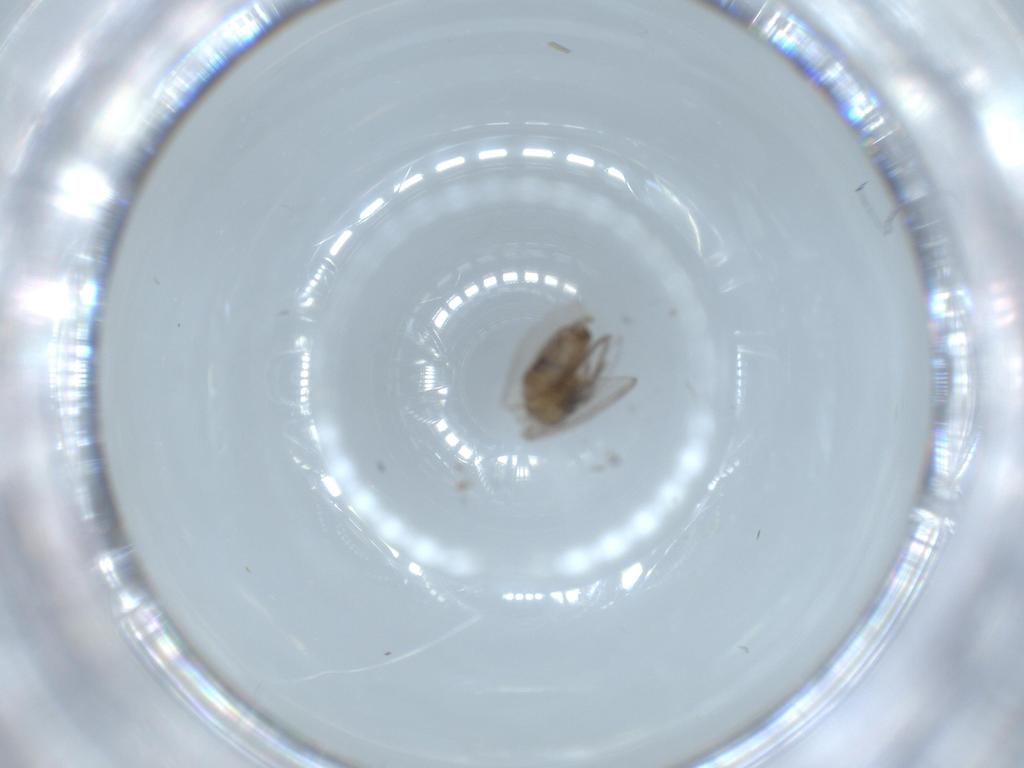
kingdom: Animalia
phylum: Arthropoda
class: Insecta
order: Diptera
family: Psychodidae
